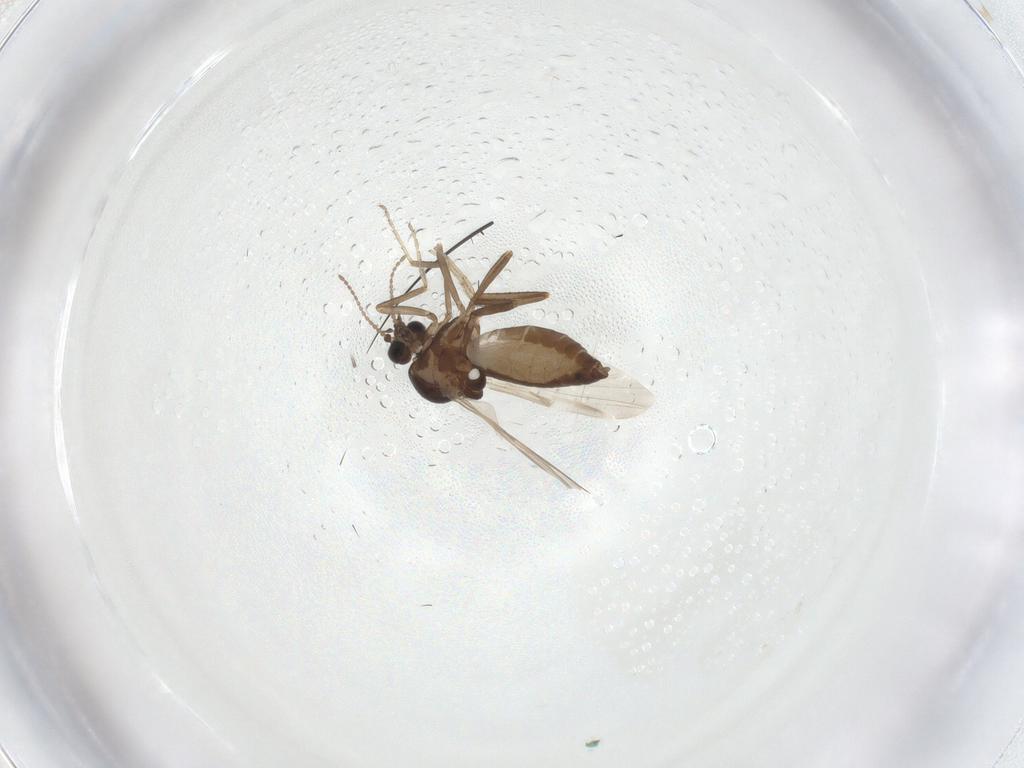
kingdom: Animalia
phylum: Arthropoda
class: Insecta
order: Diptera
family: Ceratopogonidae
